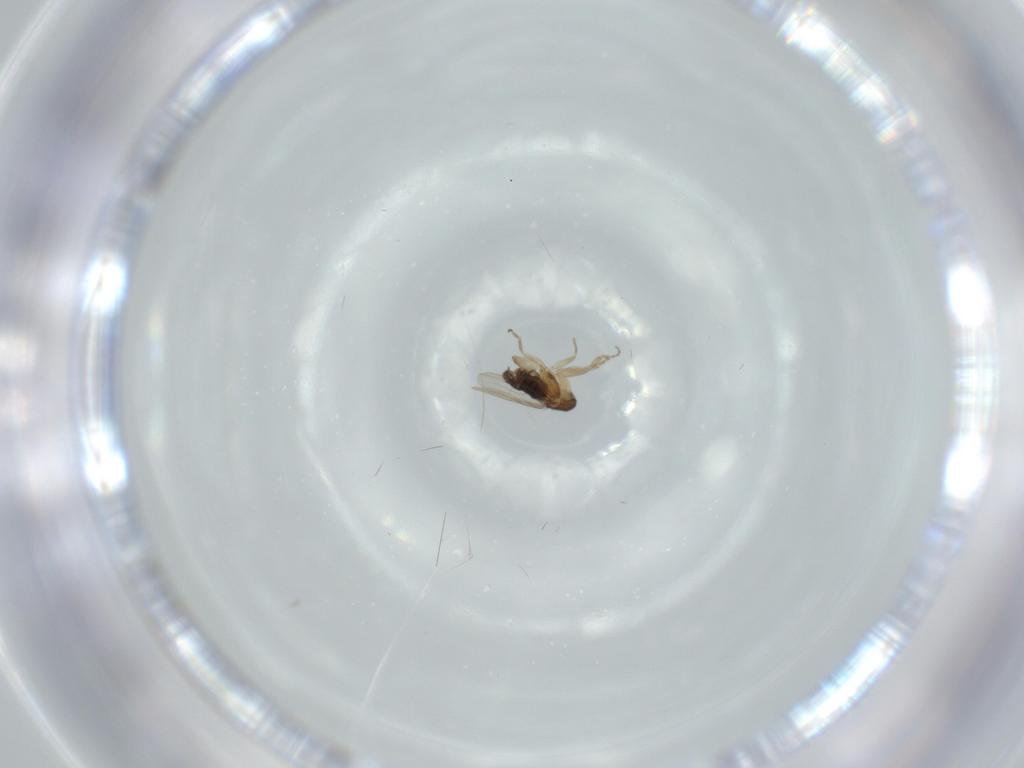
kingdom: Animalia
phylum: Arthropoda
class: Insecta
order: Diptera
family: Phoridae
